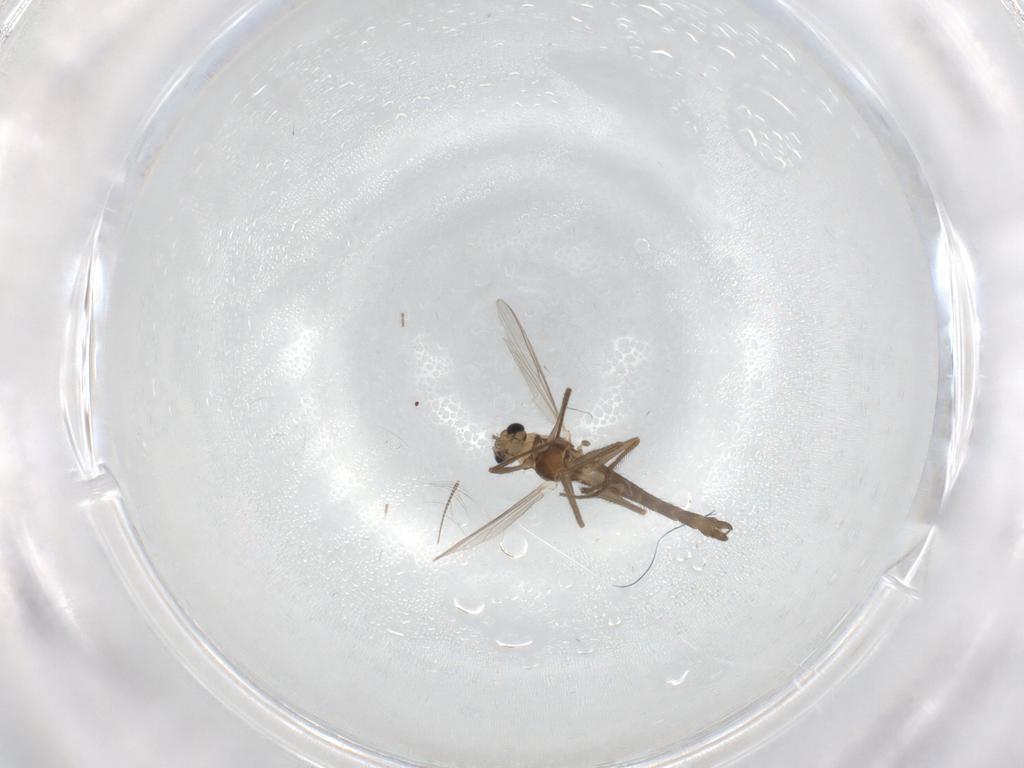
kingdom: Animalia
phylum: Arthropoda
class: Insecta
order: Diptera
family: Chironomidae
